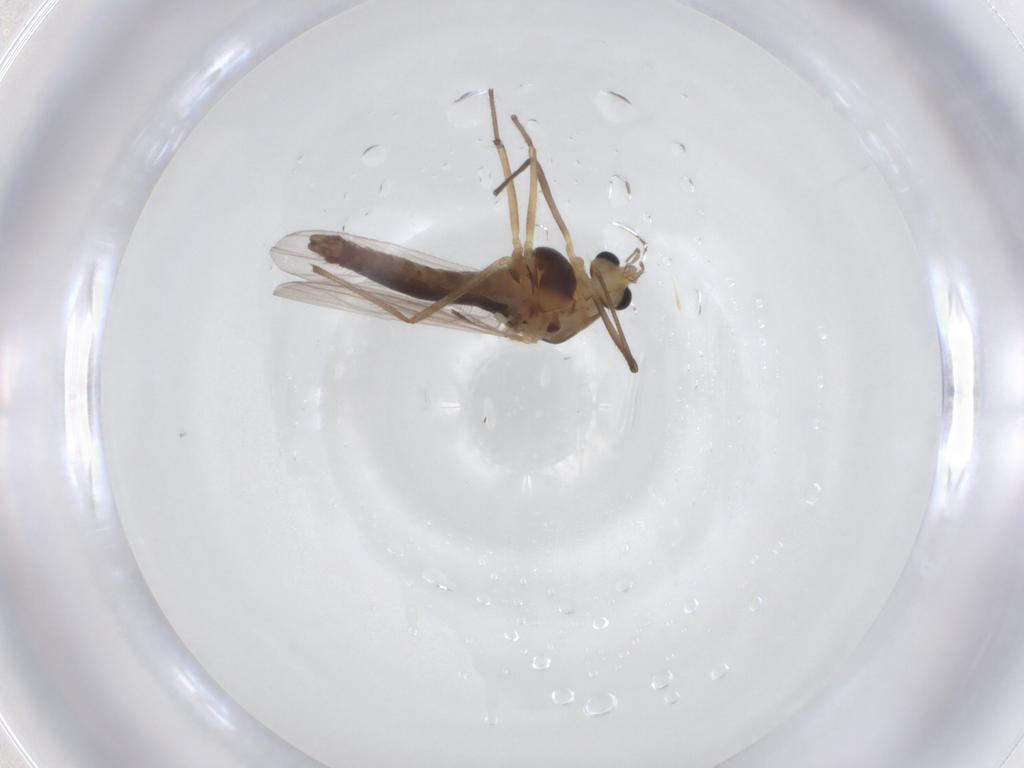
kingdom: Animalia
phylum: Arthropoda
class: Insecta
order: Diptera
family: Chironomidae
